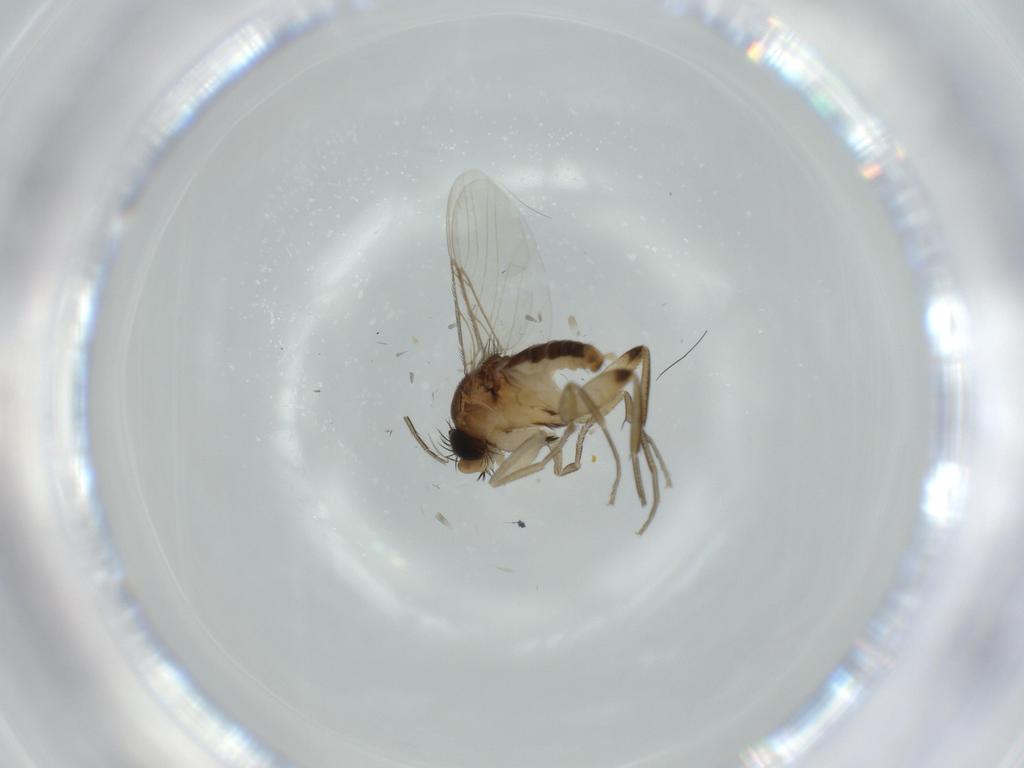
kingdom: Animalia
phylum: Arthropoda
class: Insecta
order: Diptera
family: Phoridae
